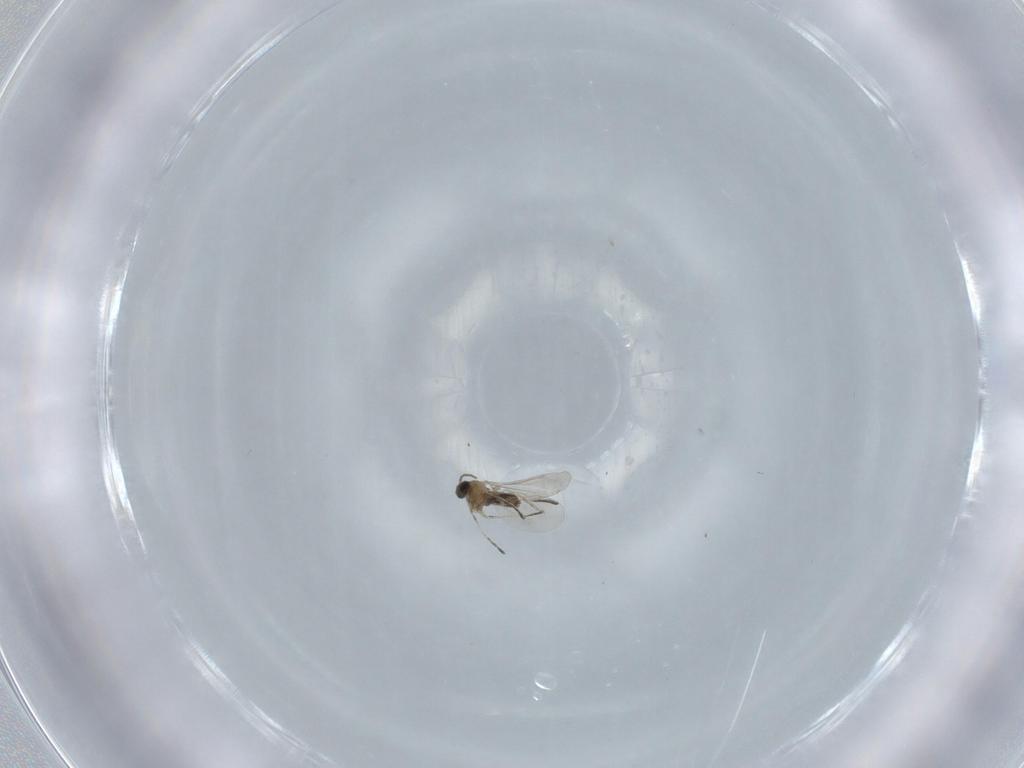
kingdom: Animalia
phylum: Arthropoda
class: Insecta
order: Diptera
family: Cecidomyiidae
